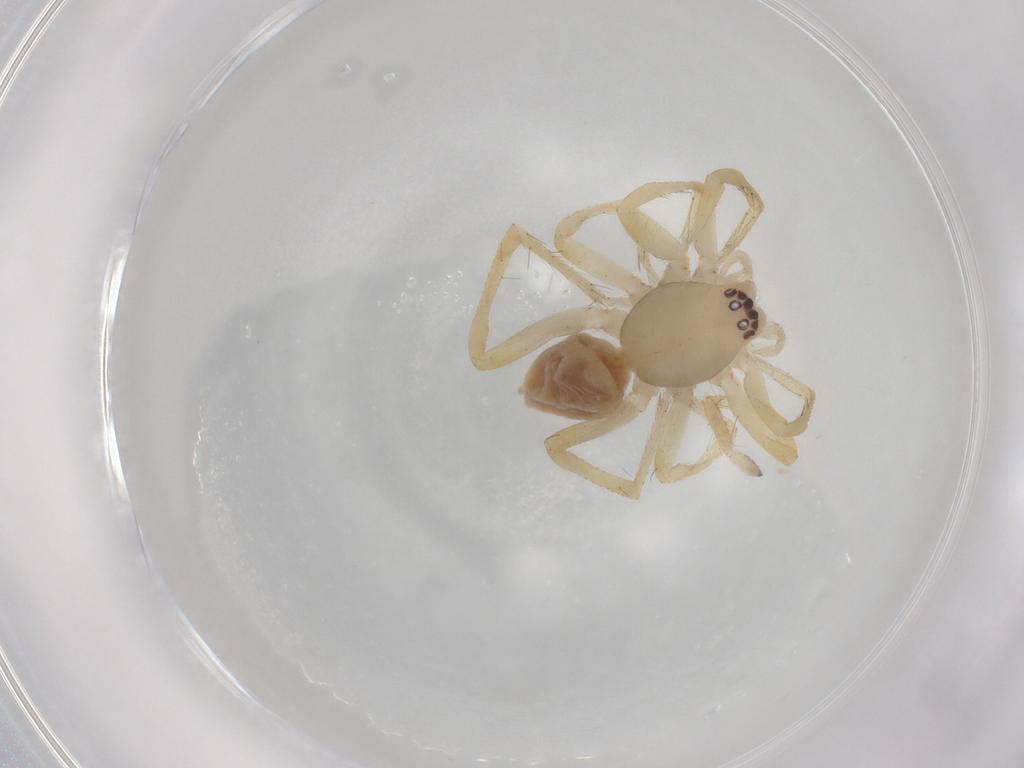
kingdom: Animalia
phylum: Arthropoda
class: Arachnida
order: Araneae
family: Clubionidae
